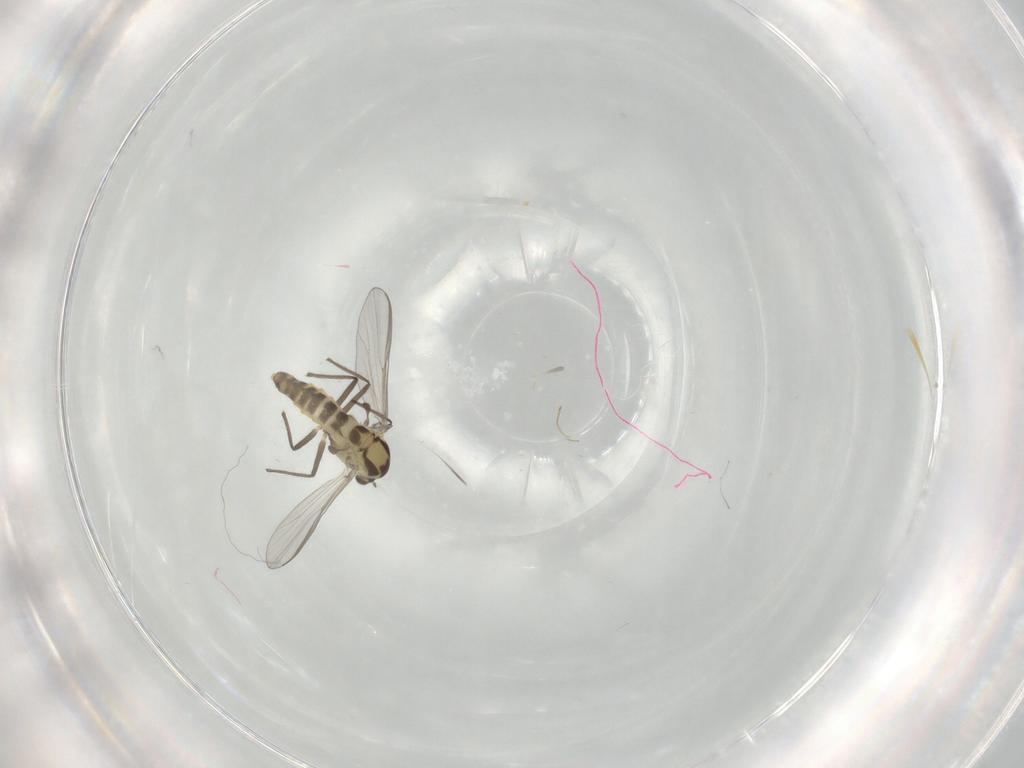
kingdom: Animalia
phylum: Arthropoda
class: Insecta
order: Diptera
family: Chironomidae
